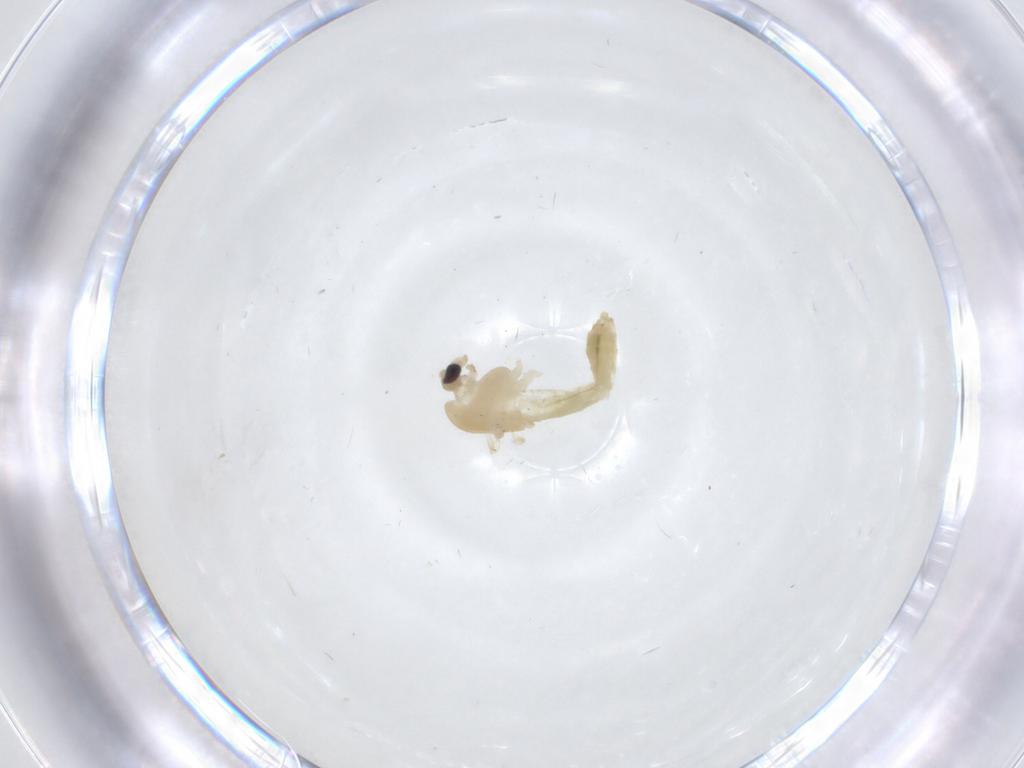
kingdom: Animalia
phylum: Arthropoda
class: Insecta
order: Diptera
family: Chironomidae
